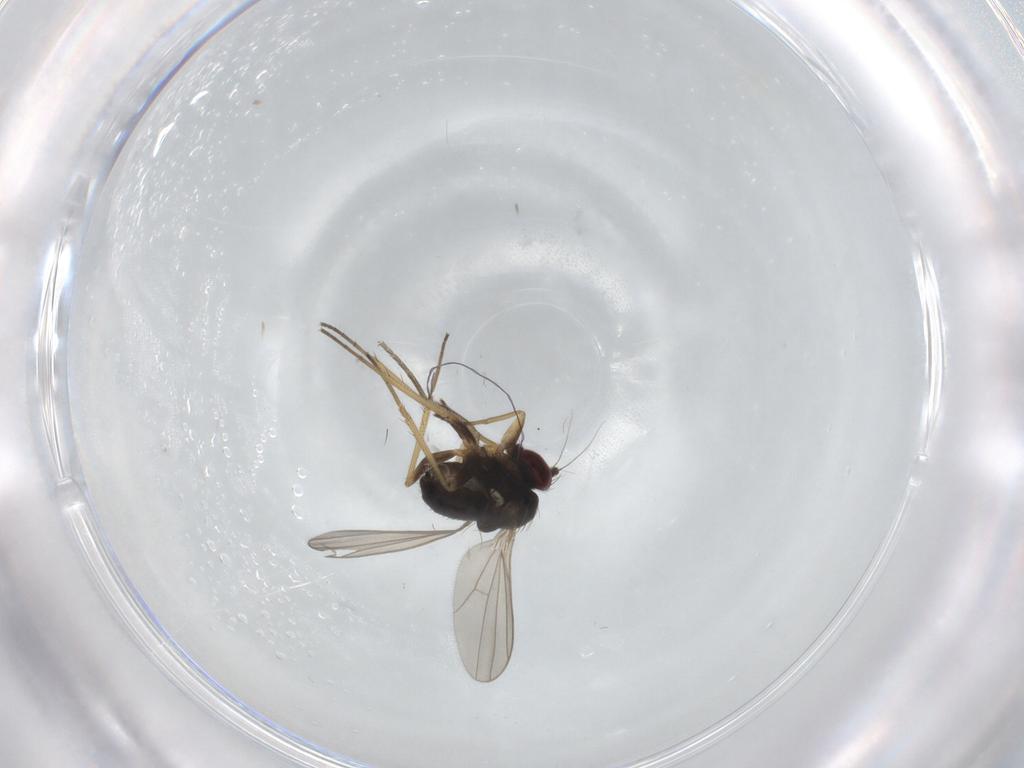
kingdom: Animalia
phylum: Arthropoda
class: Insecta
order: Diptera
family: Dolichopodidae
